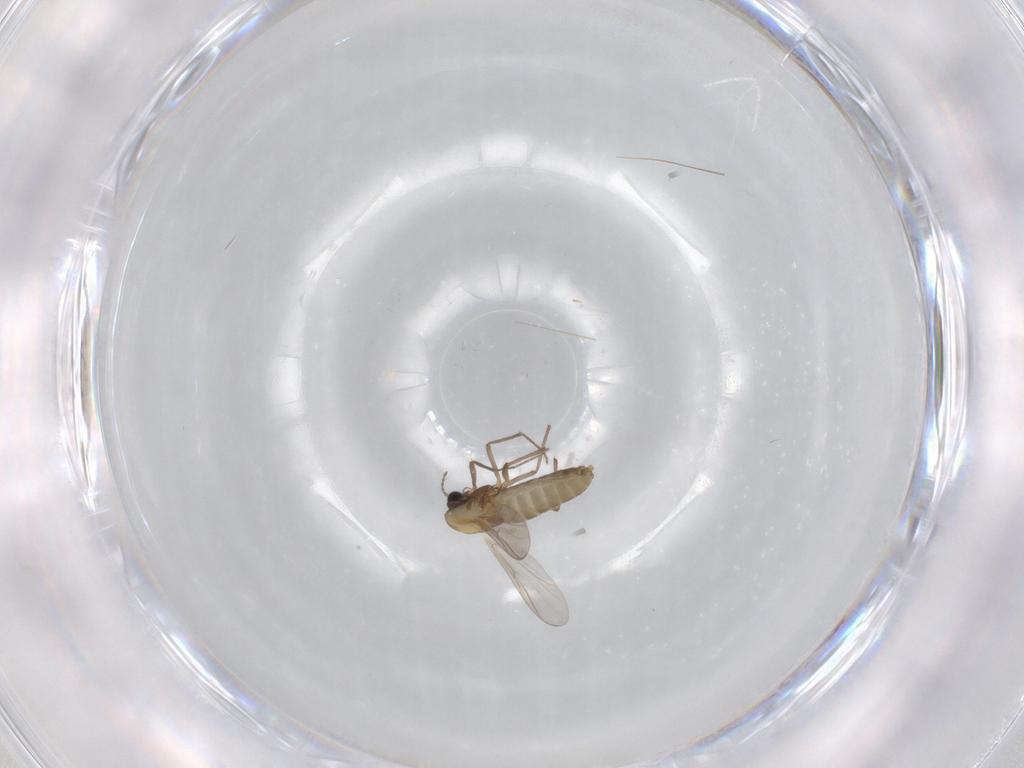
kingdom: Animalia
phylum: Arthropoda
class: Insecta
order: Diptera
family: Chironomidae
